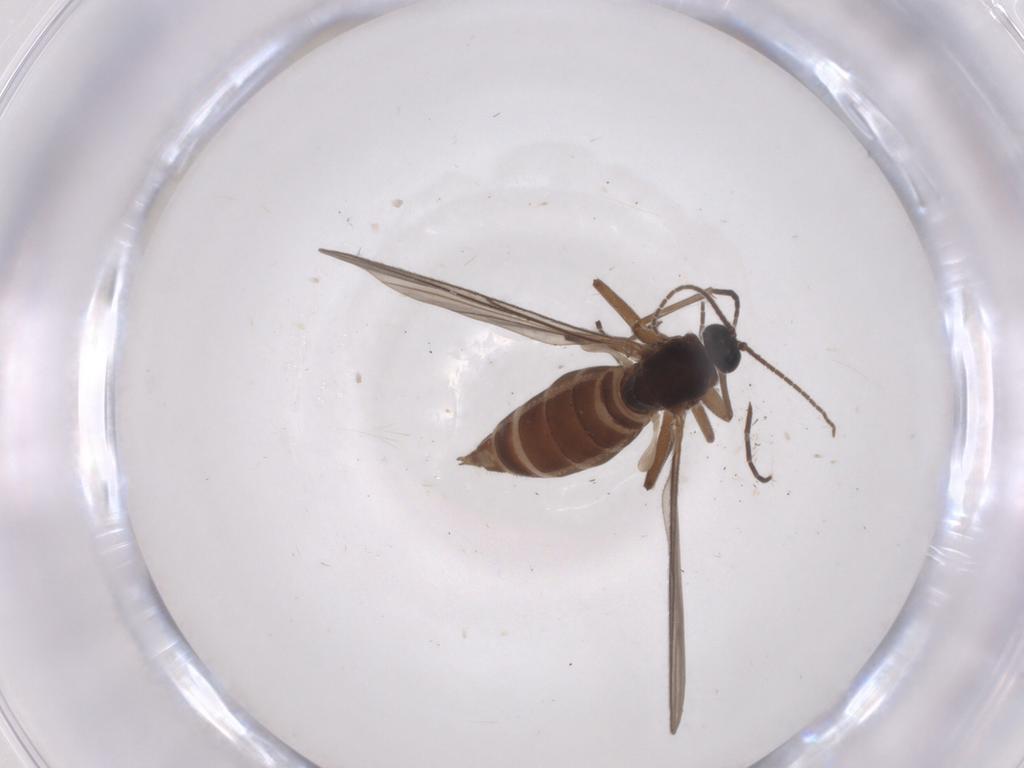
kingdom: Animalia
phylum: Arthropoda
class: Insecta
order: Diptera
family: Sciaridae
